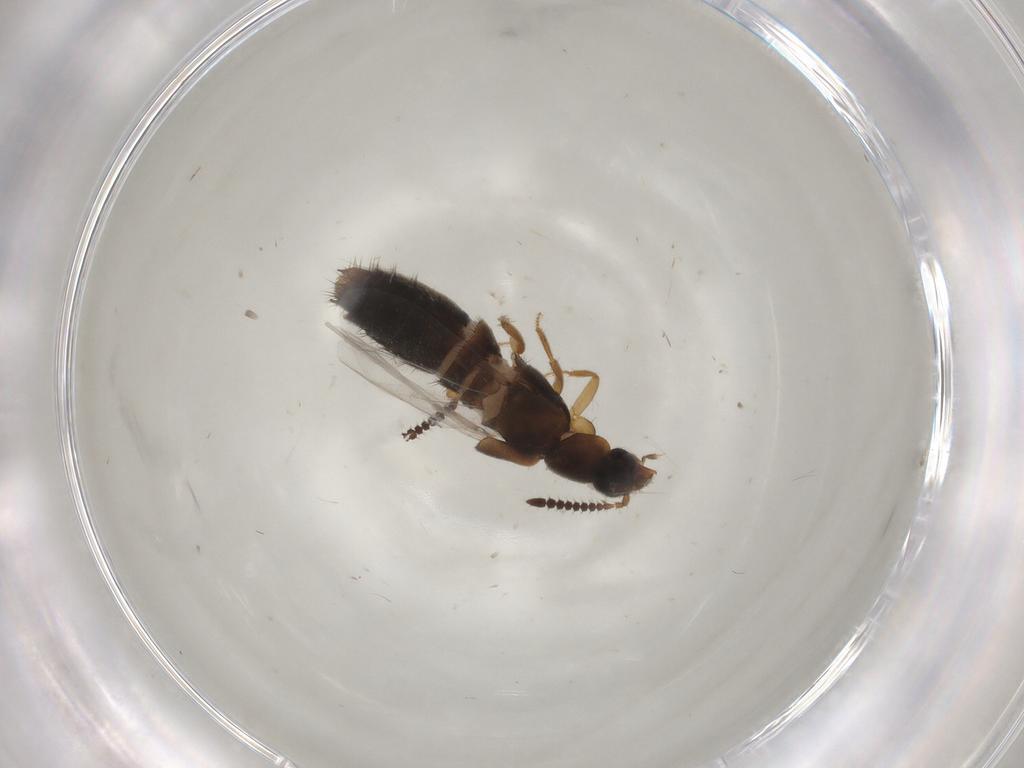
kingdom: Animalia
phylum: Arthropoda
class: Insecta
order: Coleoptera
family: Staphylinidae
